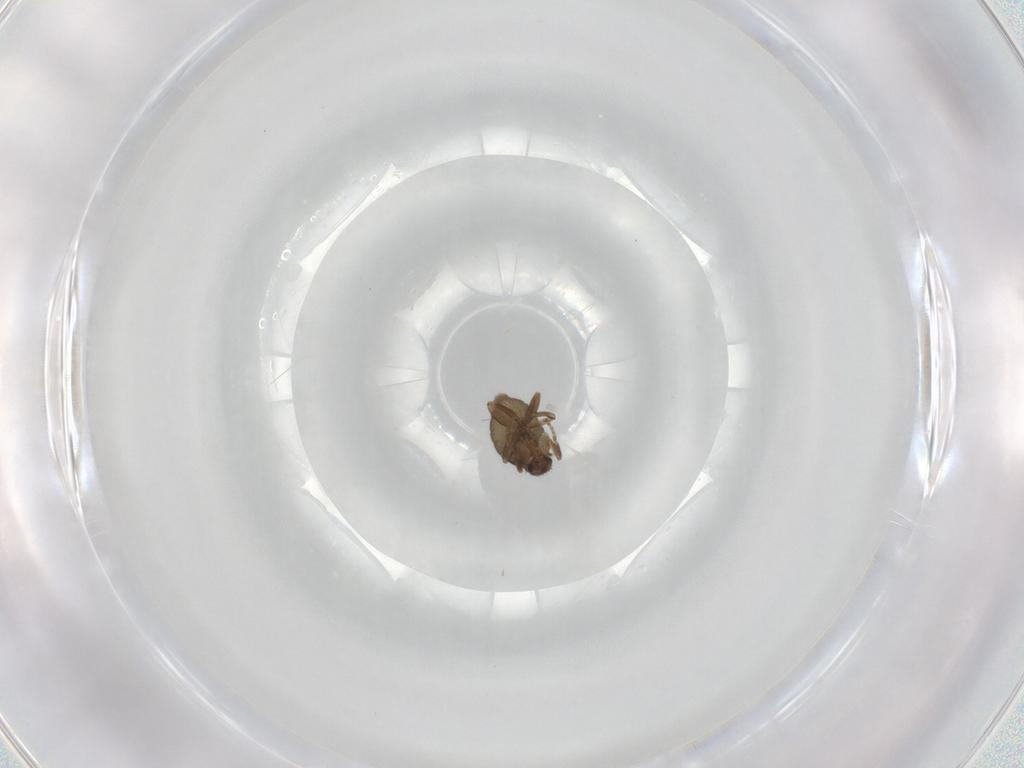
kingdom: Animalia
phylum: Arthropoda
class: Insecta
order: Diptera
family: Phoridae
